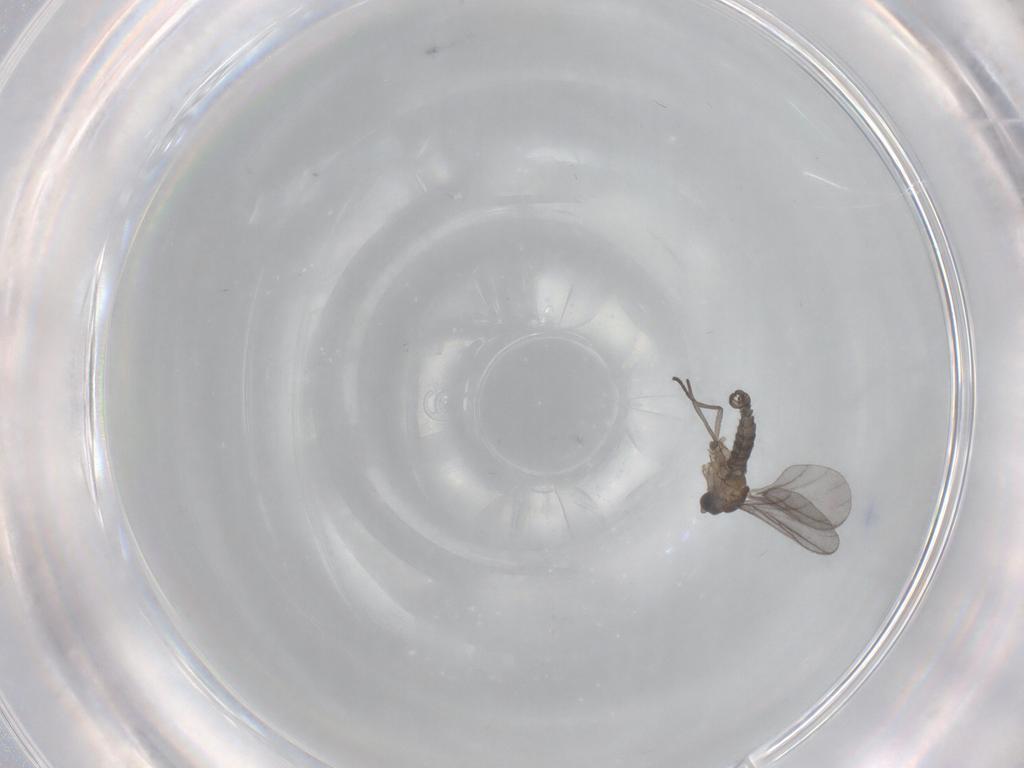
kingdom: Animalia
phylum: Arthropoda
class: Insecta
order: Diptera
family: Sciaridae
